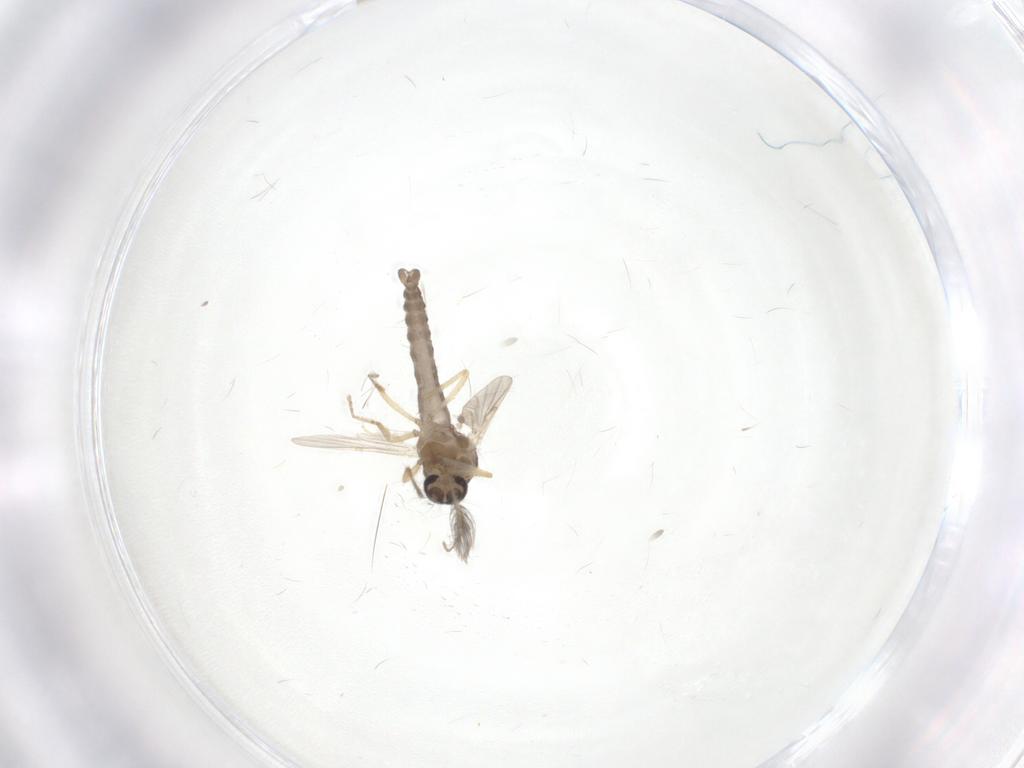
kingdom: Animalia
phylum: Arthropoda
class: Insecta
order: Diptera
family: Ceratopogonidae
